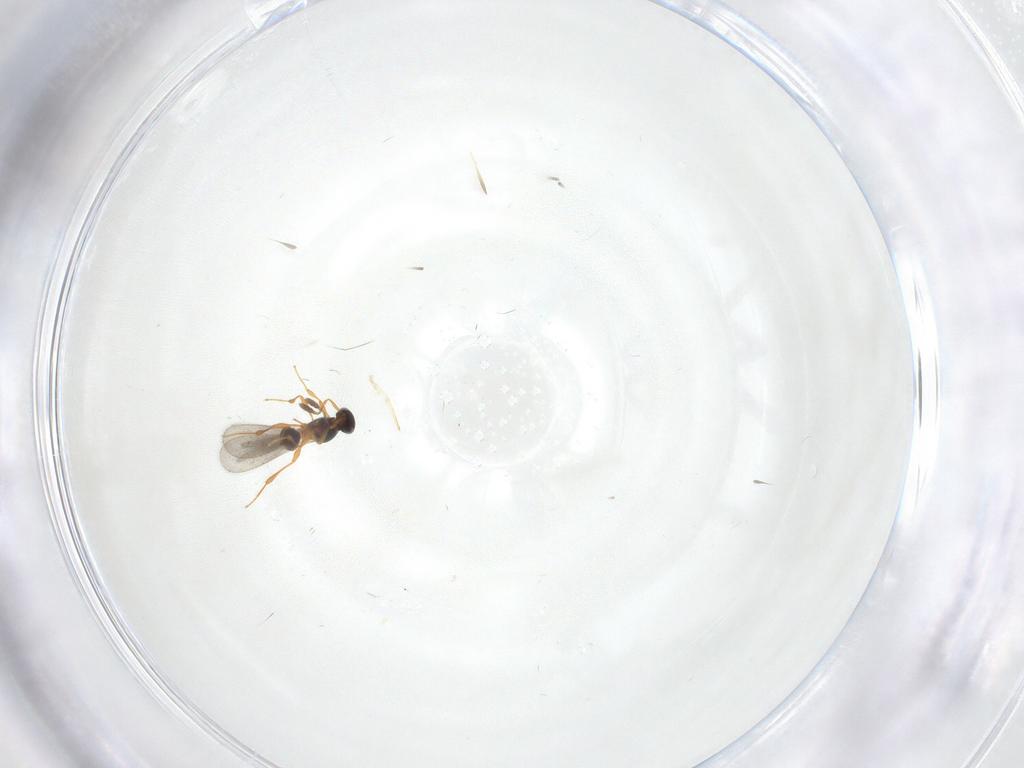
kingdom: Animalia
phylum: Arthropoda
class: Insecta
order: Hymenoptera
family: Platygastridae
